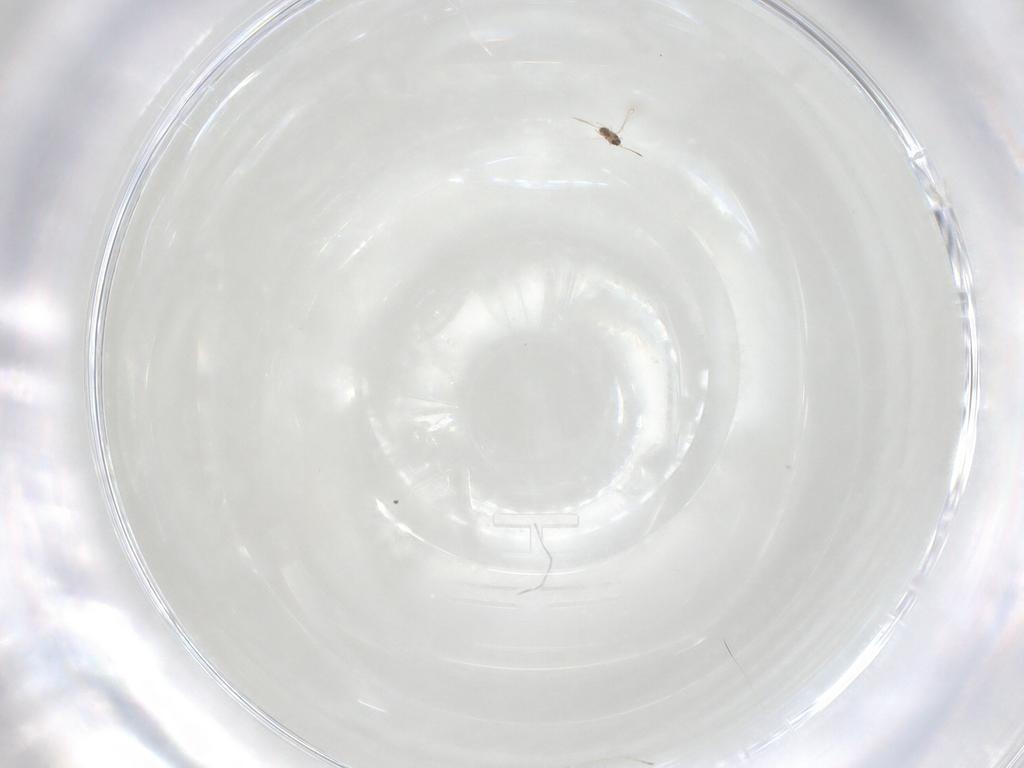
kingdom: Animalia
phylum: Arthropoda
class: Insecta
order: Diptera
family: Cecidomyiidae
